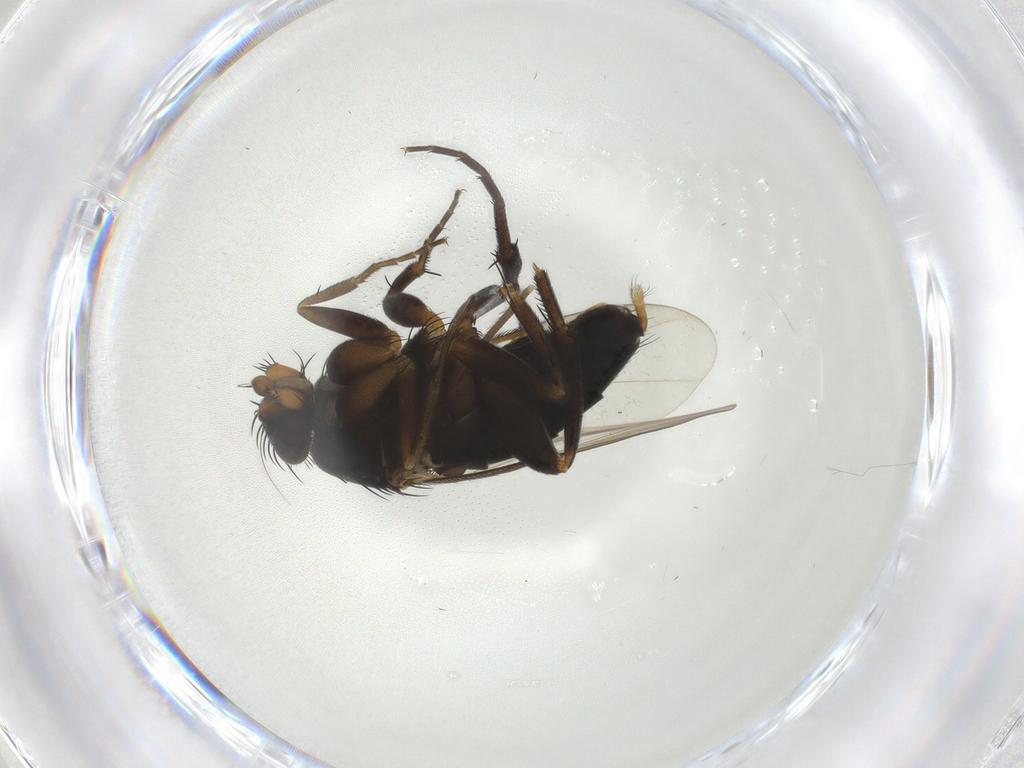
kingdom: Animalia
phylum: Arthropoda
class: Insecta
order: Diptera
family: Phoridae
